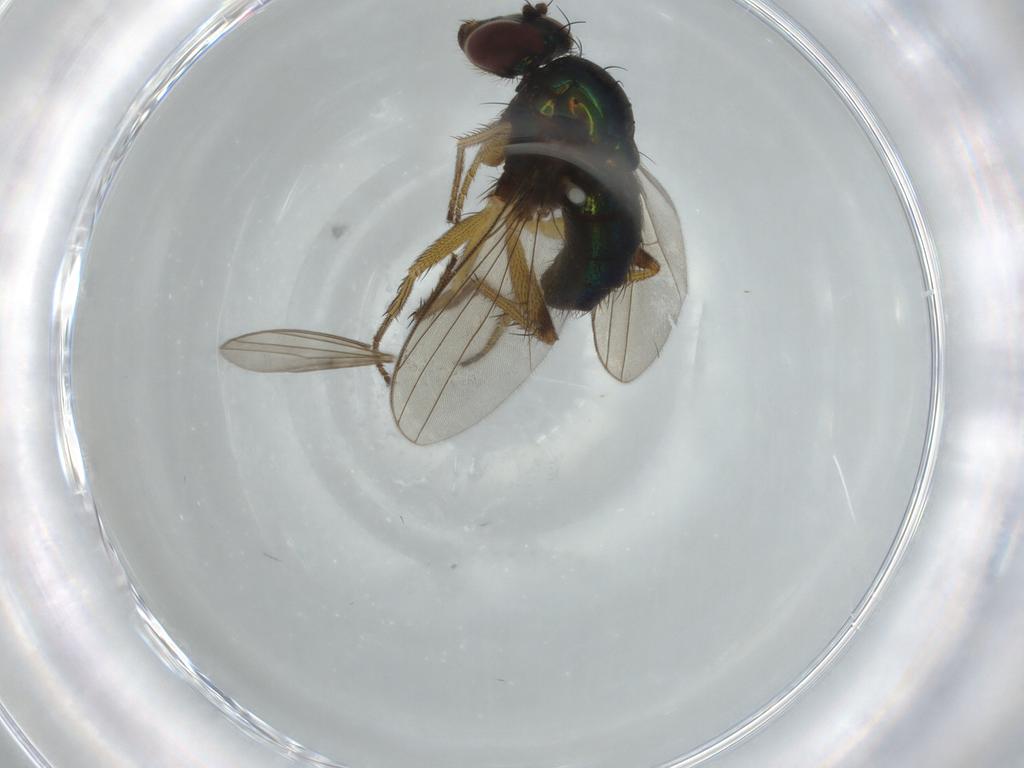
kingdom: Animalia
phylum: Arthropoda
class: Insecta
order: Diptera
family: Dolichopodidae
